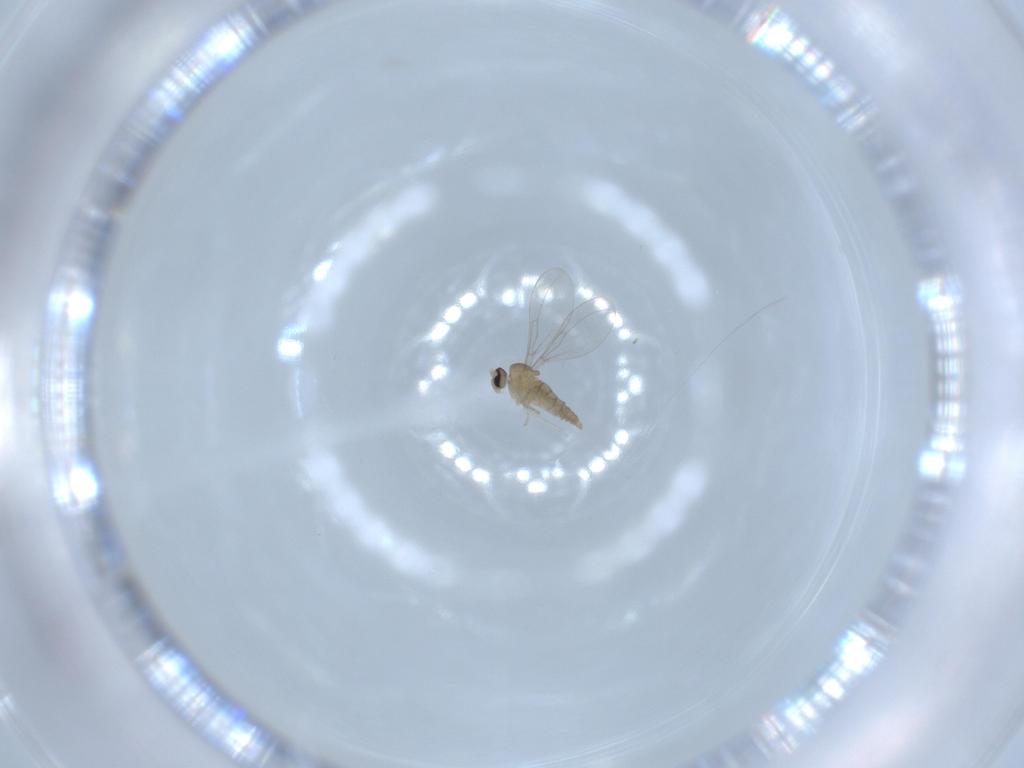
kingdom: Animalia
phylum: Arthropoda
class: Insecta
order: Diptera
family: Cecidomyiidae
